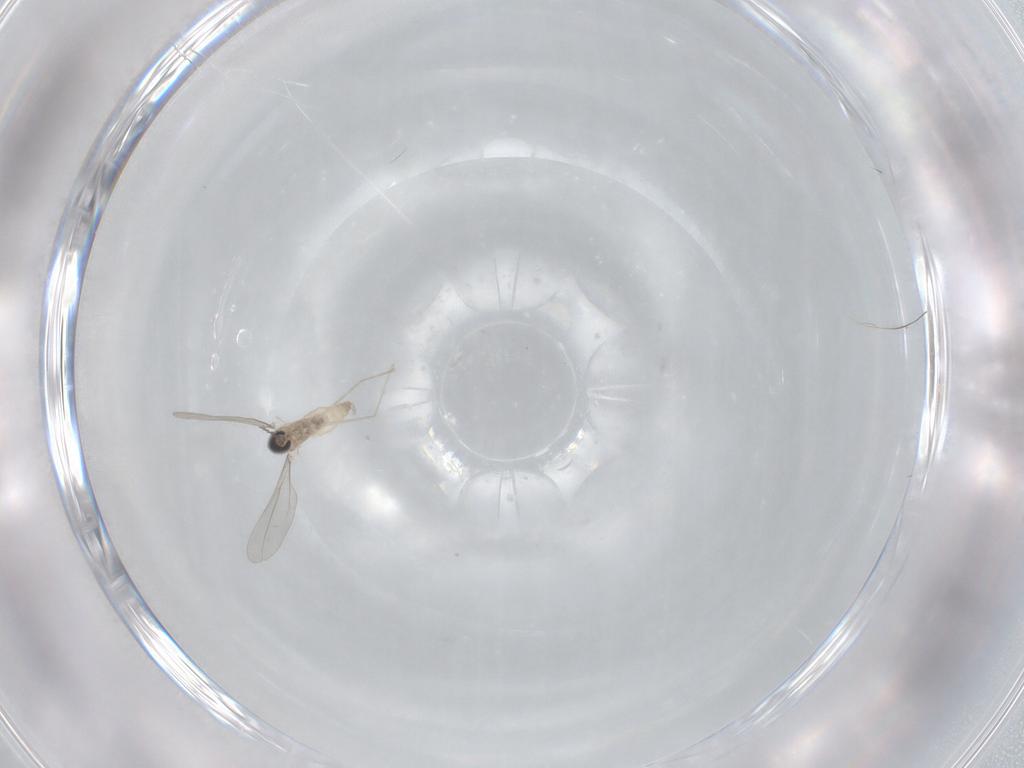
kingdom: Animalia
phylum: Arthropoda
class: Insecta
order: Diptera
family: Cecidomyiidae
